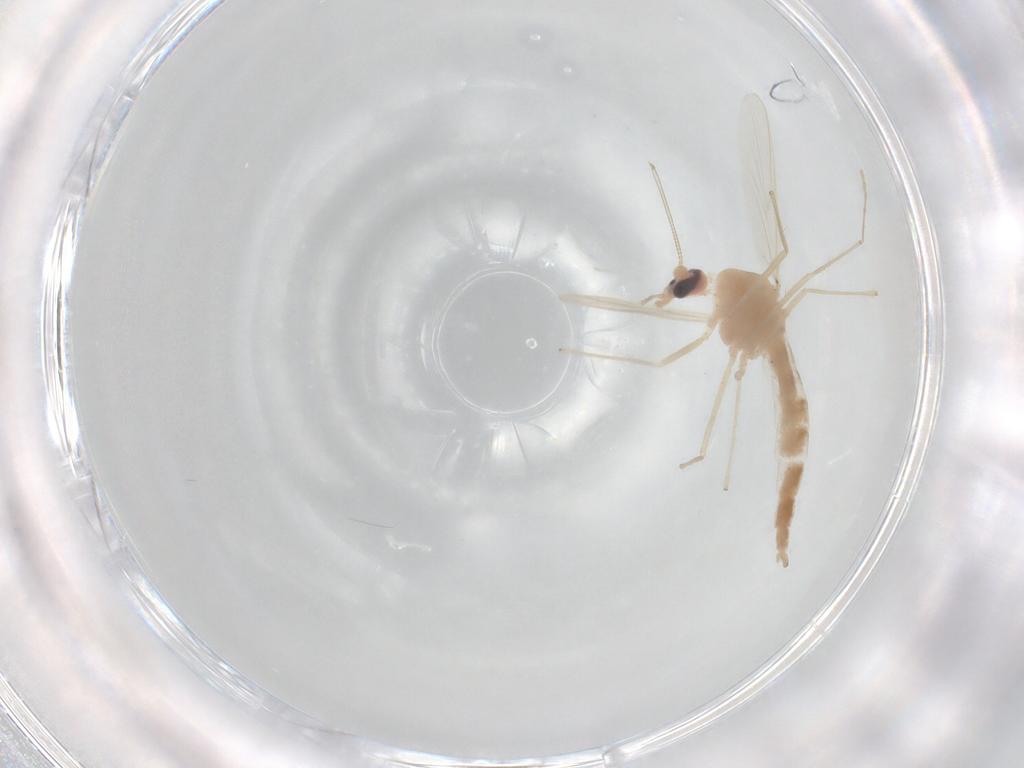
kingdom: Animalia
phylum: Arthropoda
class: Insecta
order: Diptera
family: Chironomidae
